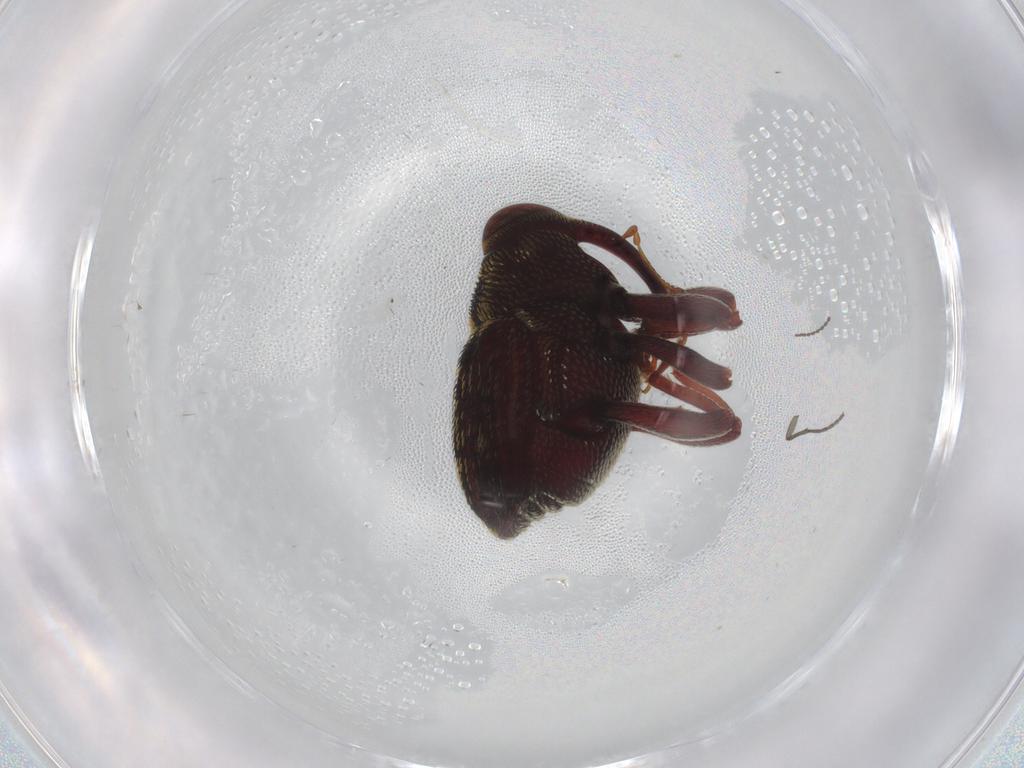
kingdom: Animalia
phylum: Arthropoda
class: Insecta
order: Coleoptera
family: Curculionidae
